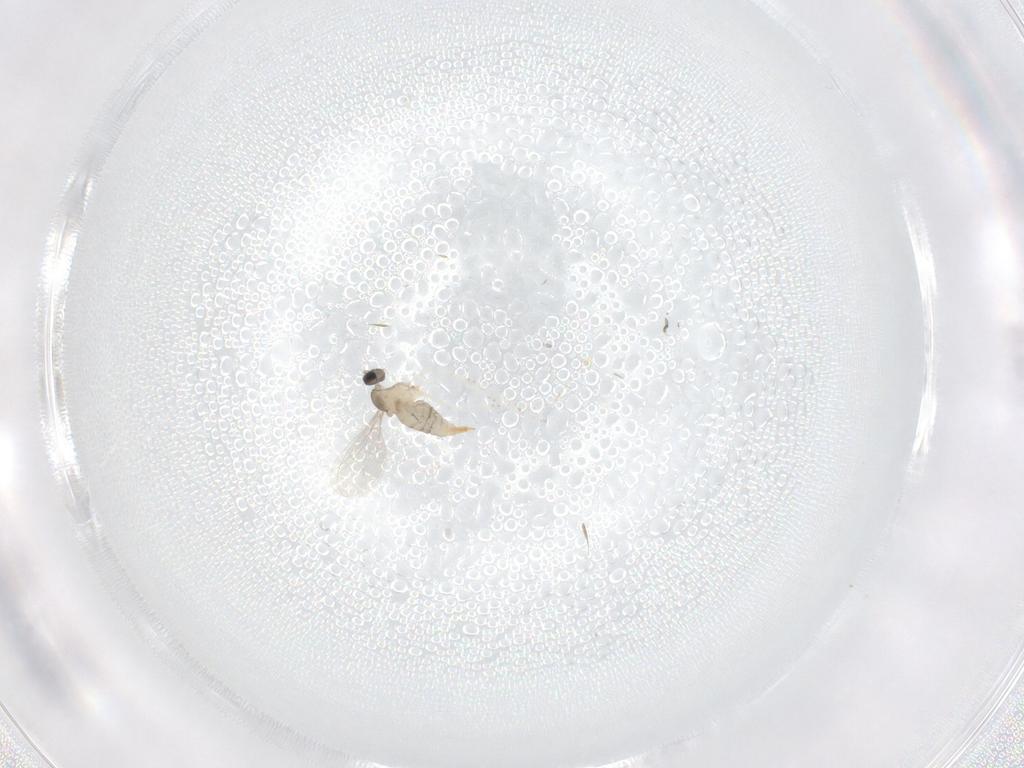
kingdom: Animalia
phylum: Arthropoda
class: Insecta
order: Diptera
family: Cecidomyiidae
